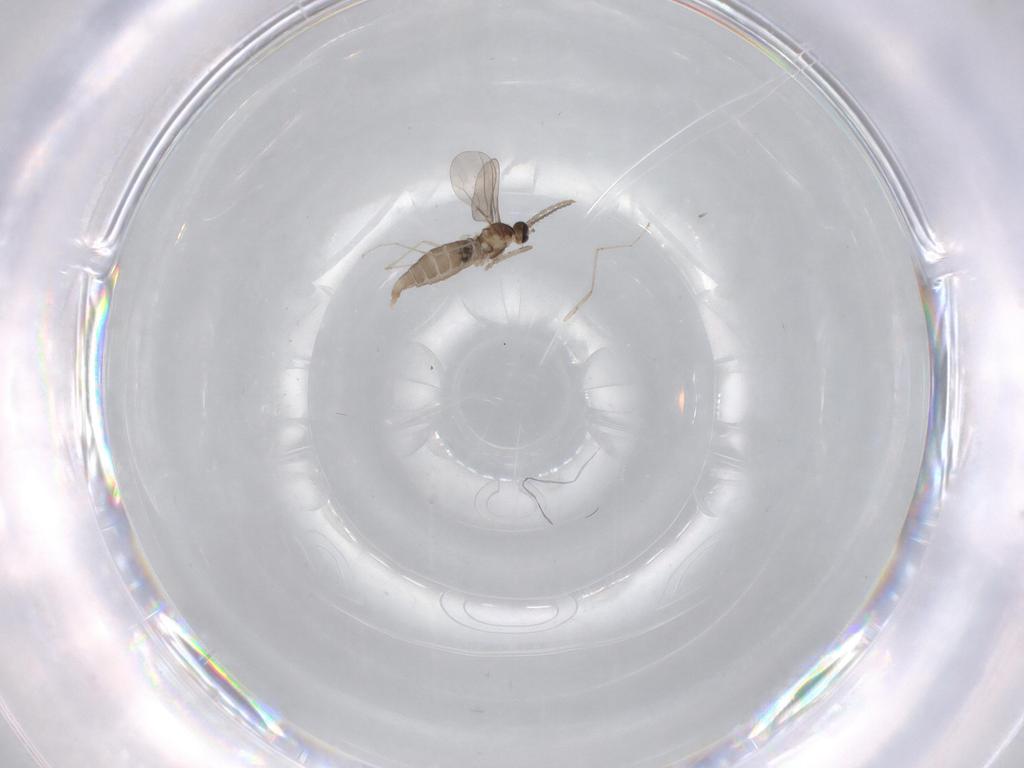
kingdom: Animalia
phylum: Arthropoda
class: Insecta
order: Diptera
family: Cecidomyiidae
